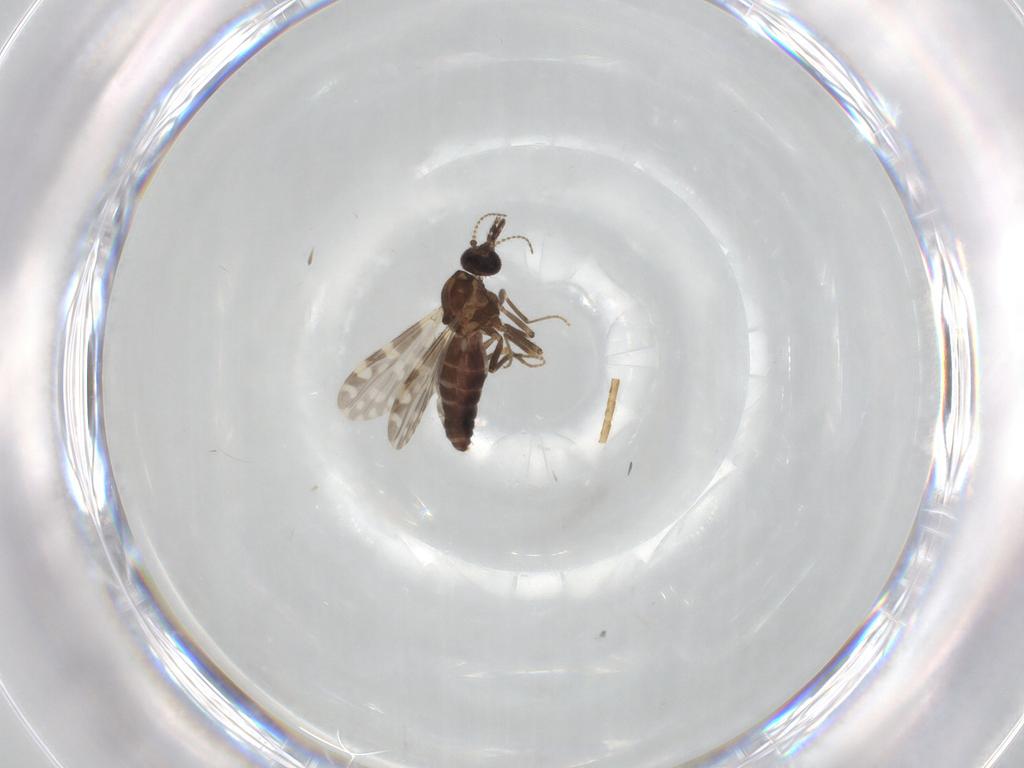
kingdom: Animalia
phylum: Arthropoda
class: Insecta
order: Diptera
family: Ceratopogonidae
